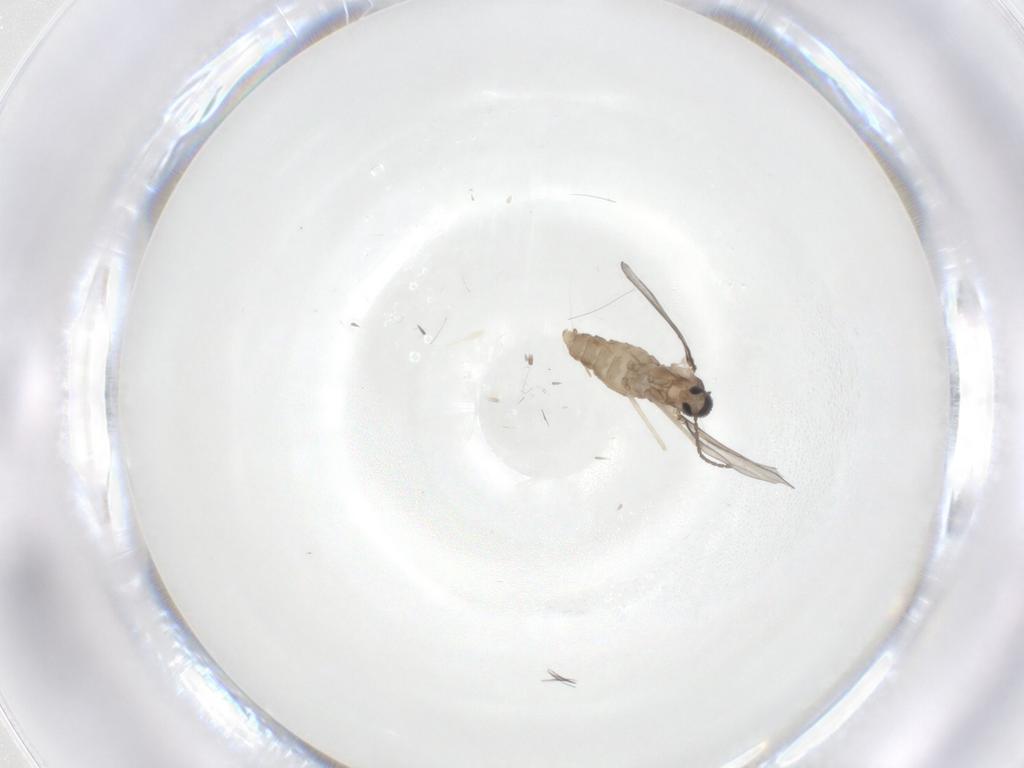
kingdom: Animalia
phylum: Arthropoda
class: Insecta
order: Diptera
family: Cecidomyiidae
